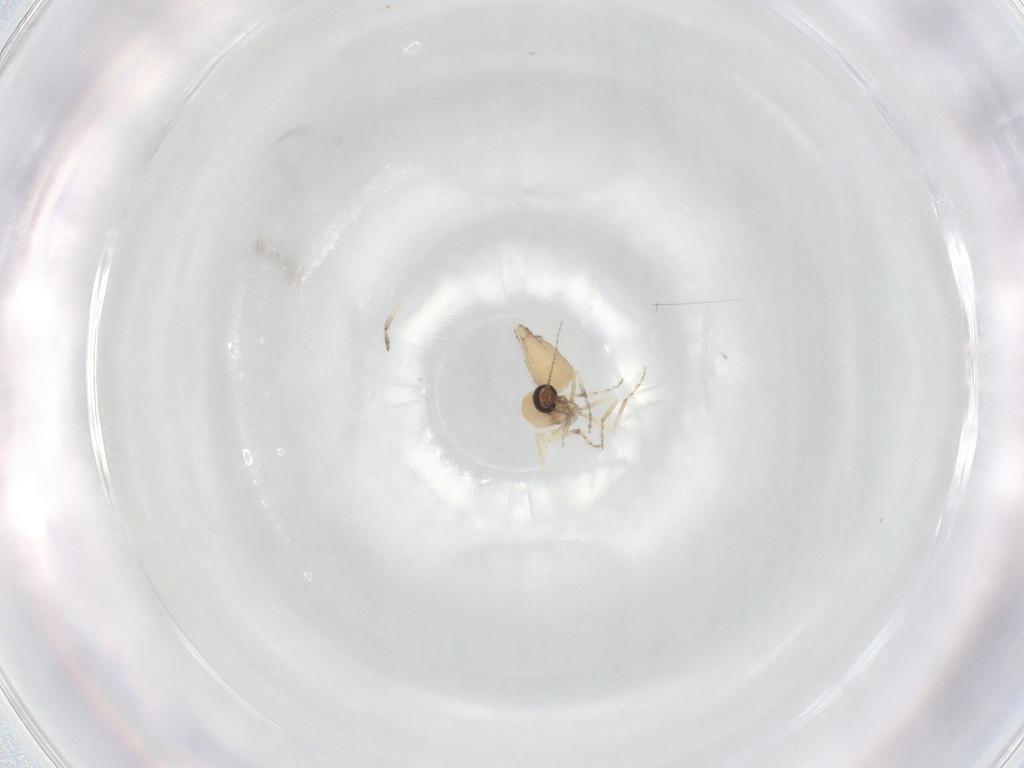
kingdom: Animalia
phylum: Arthropoda
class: Insecta
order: Diptera
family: Ceratopogonidae
